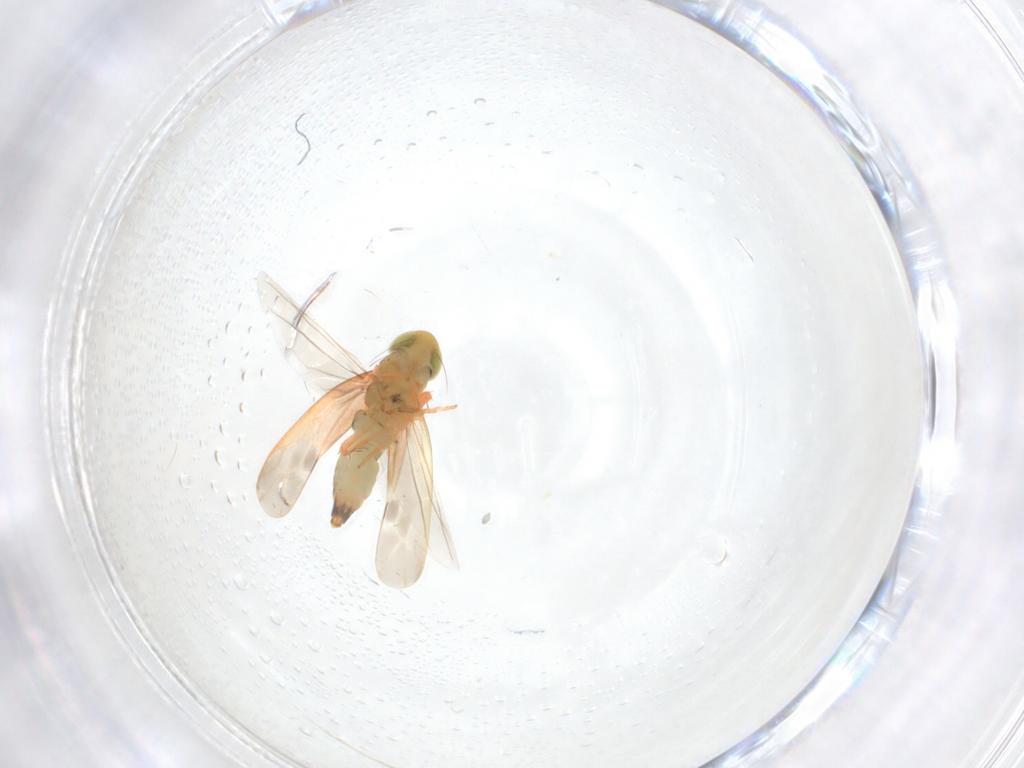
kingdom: Animalia
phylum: Arthropoda
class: Insecta
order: Hemiptera
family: Cicadellidae
